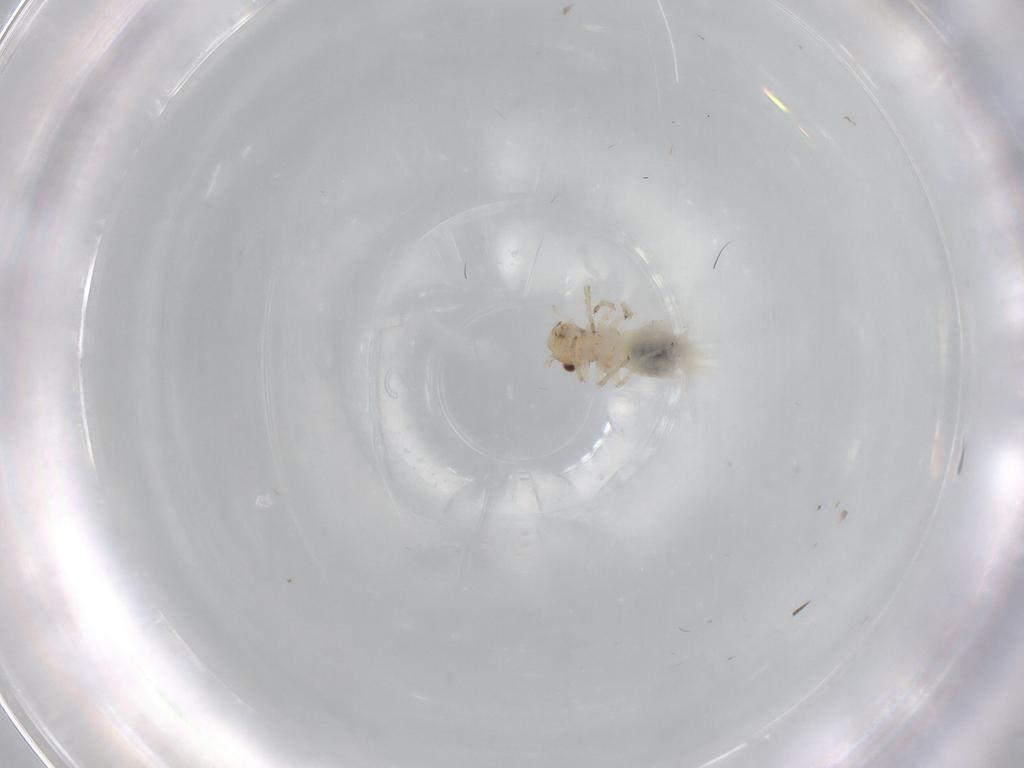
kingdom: Animalia
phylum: Arthropoda
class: Insecta
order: Psocodea
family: Caeciliusidae
